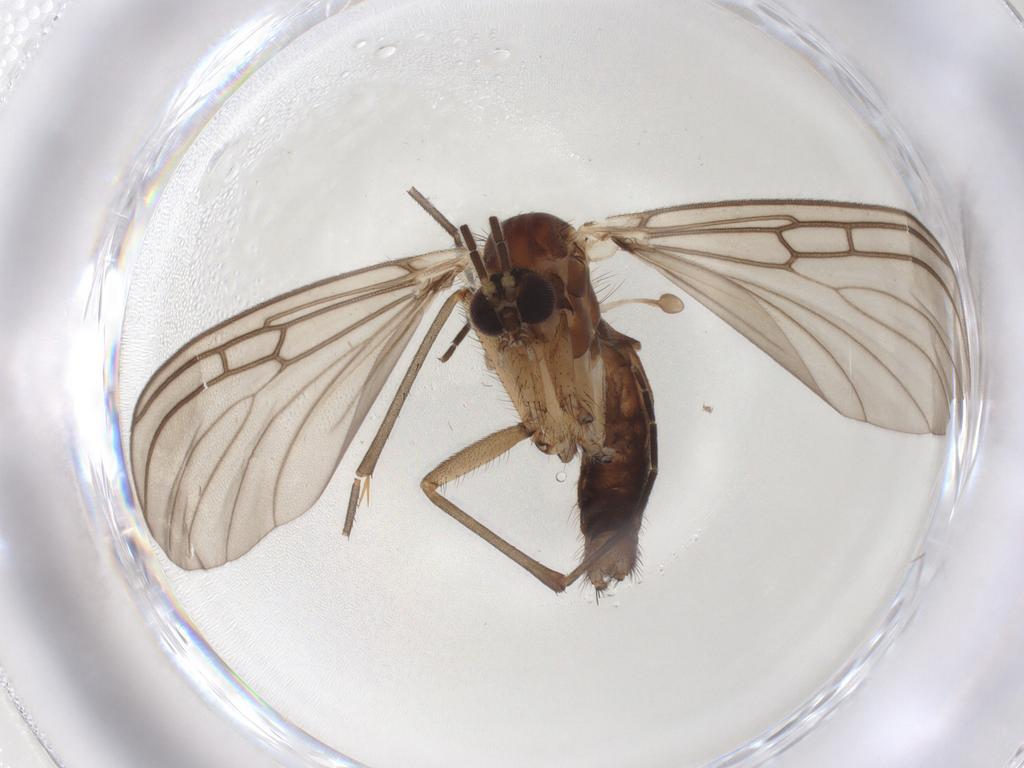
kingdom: Animalia
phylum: Arthropoda
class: Insecta
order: Diptera
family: Mycetophilidae
